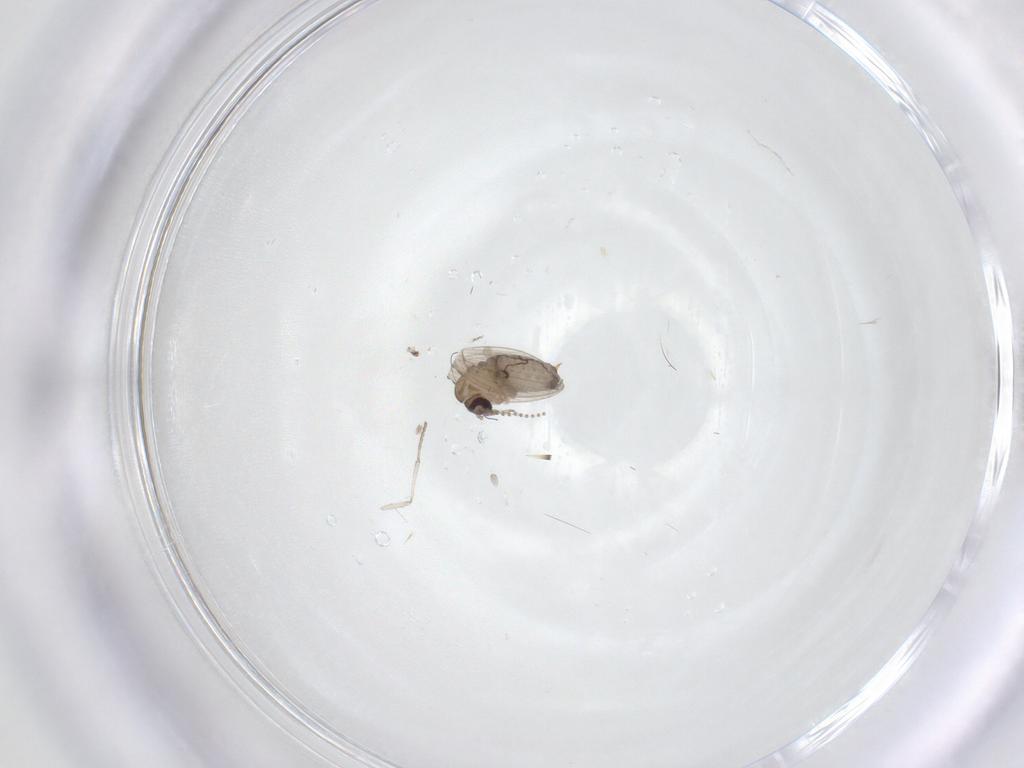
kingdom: Animalia
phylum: Arthropoda
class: Insecta
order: Diptera
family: Psychodidae
